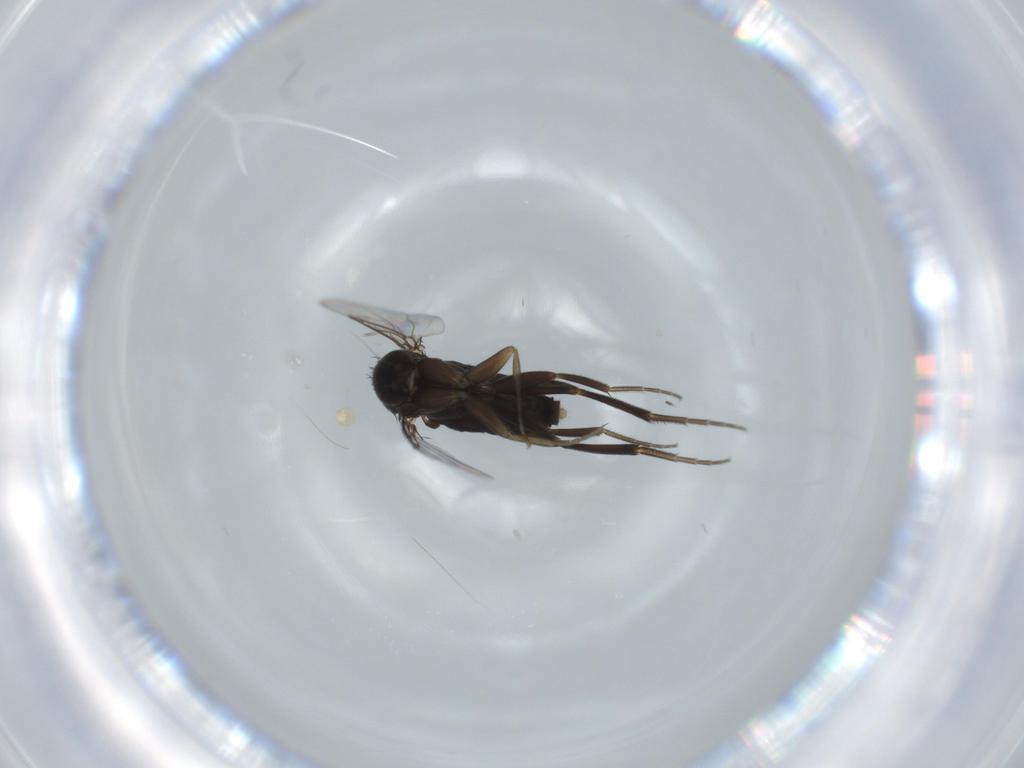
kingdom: Animalia
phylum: Arthropoda
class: Insecta
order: Diptera
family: Phoridae
